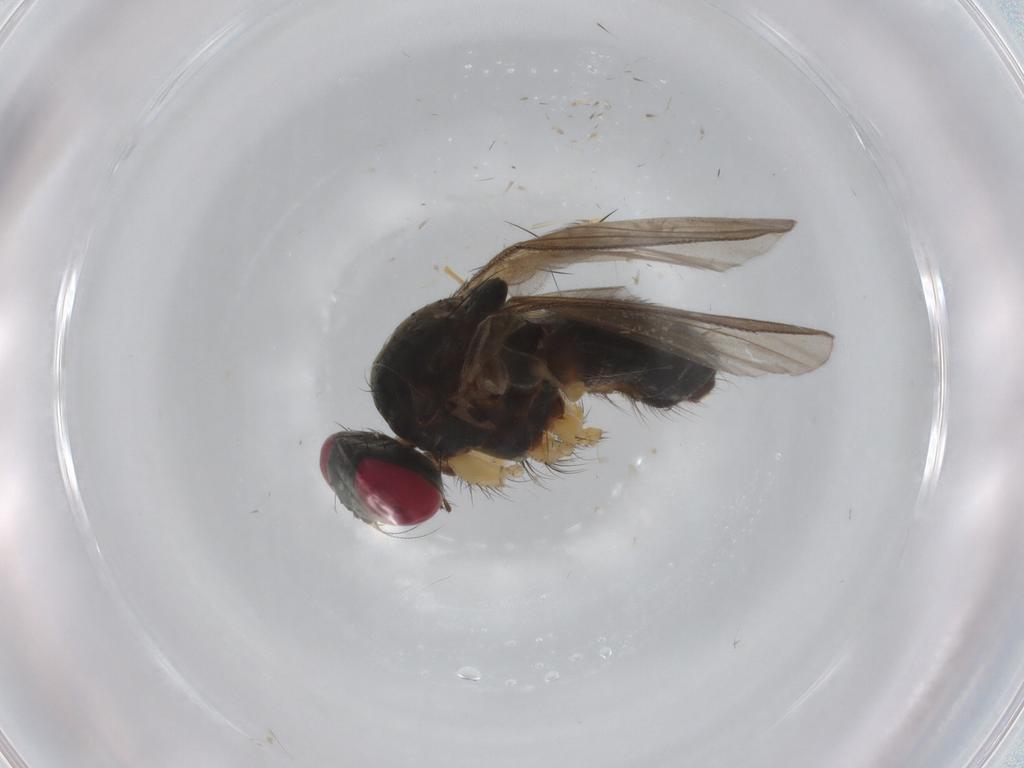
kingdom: Animalia
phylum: Arthropoda
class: Insecta
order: Diptera
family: Muscidae
